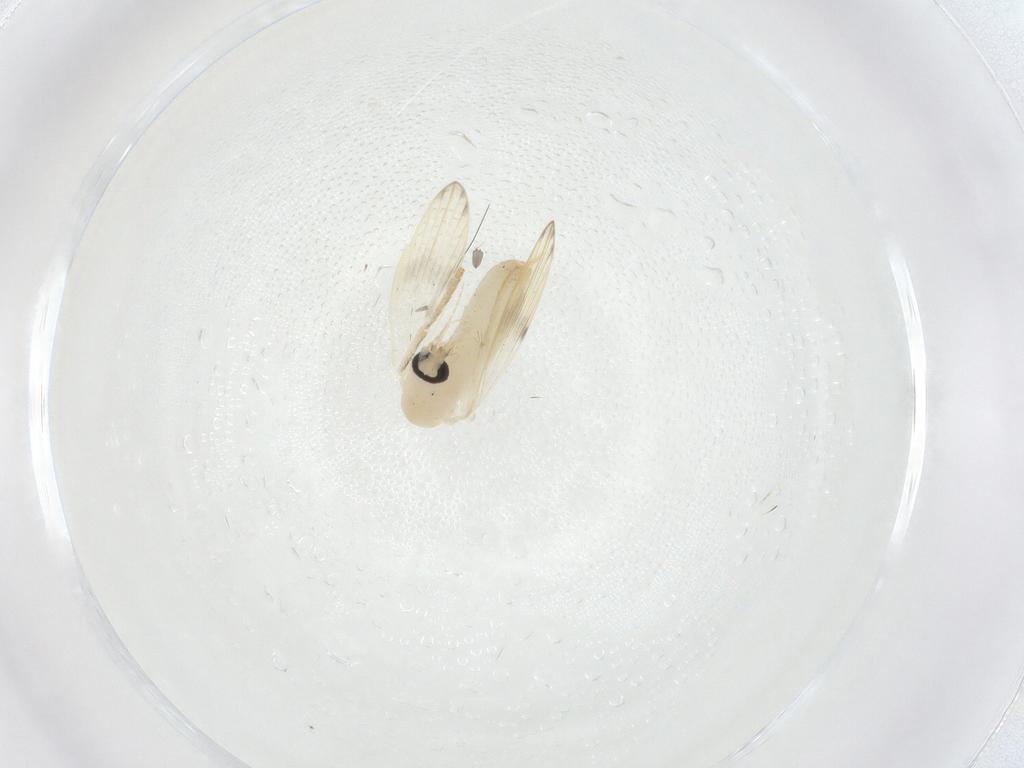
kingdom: Animalia
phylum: Arthropoda
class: Insecta
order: Diptera
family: Psychodidae
